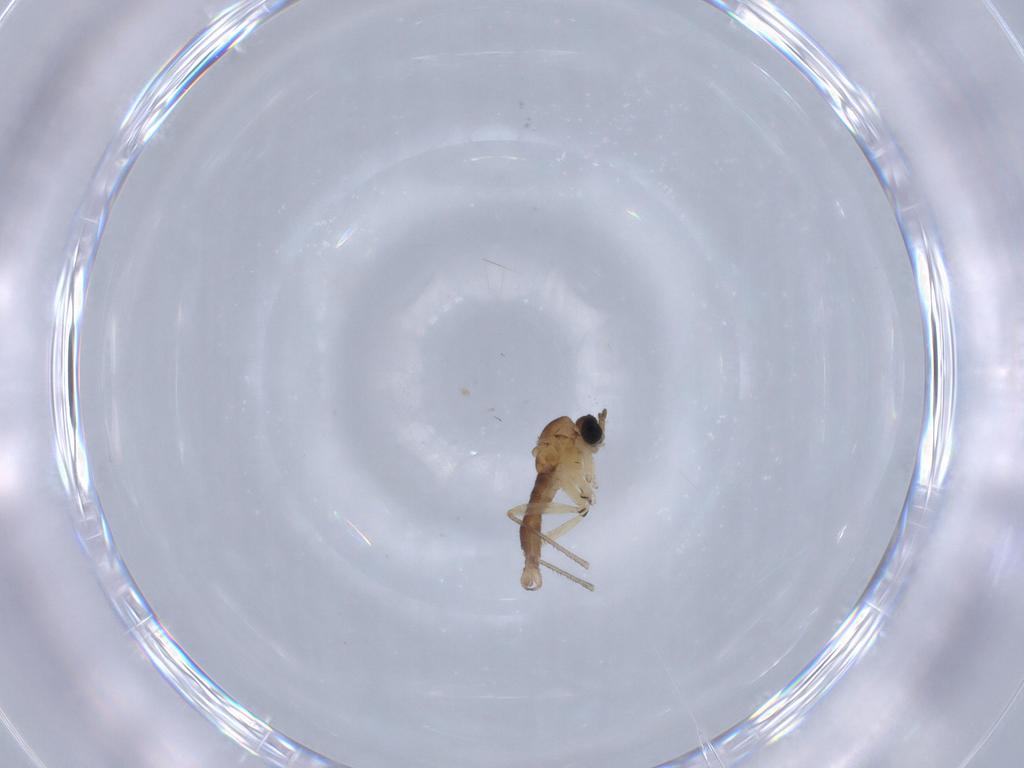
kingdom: Animalia
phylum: Arthropoda
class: Insecta
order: Diptera
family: Sciaridae
